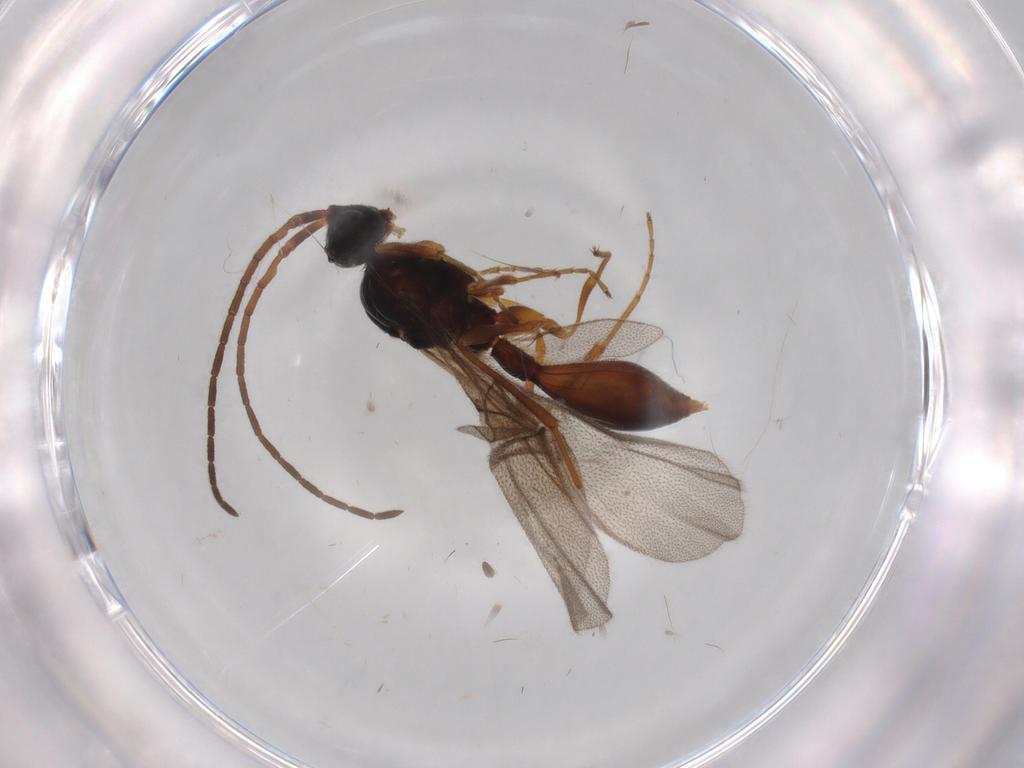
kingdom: Animalia
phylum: Arthropoda
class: Insecta
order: Hymenoptera
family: Diapriidae
